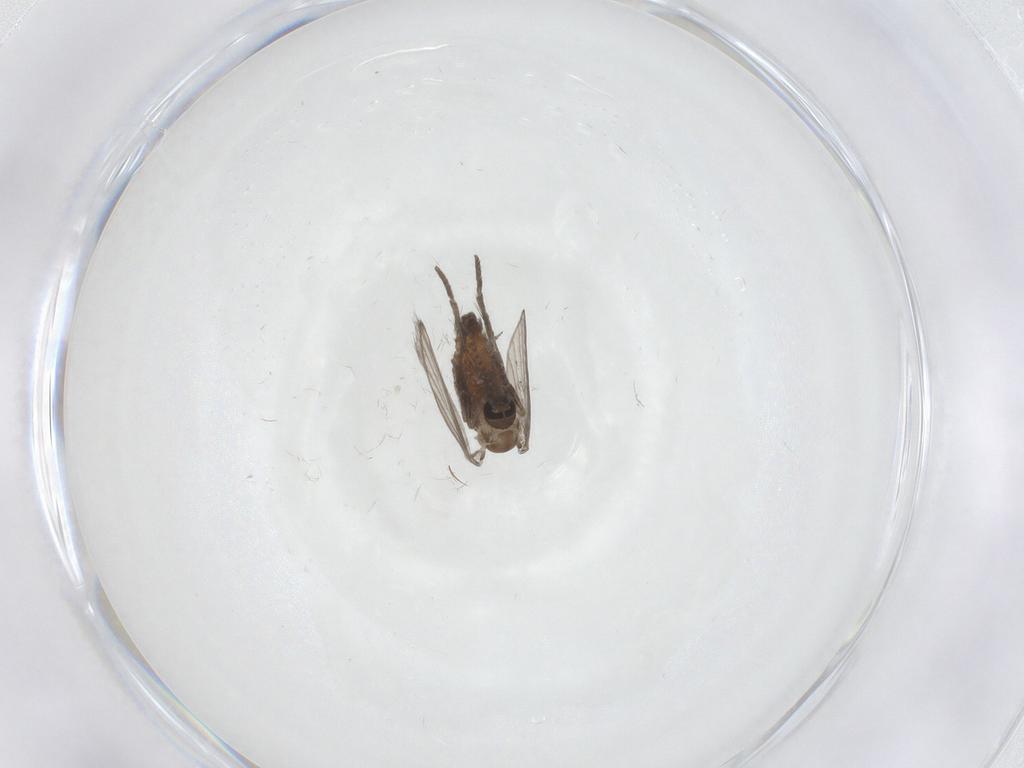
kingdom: Animalia
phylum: Arthropoda
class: Insecta
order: Diptera
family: Psychodidae
